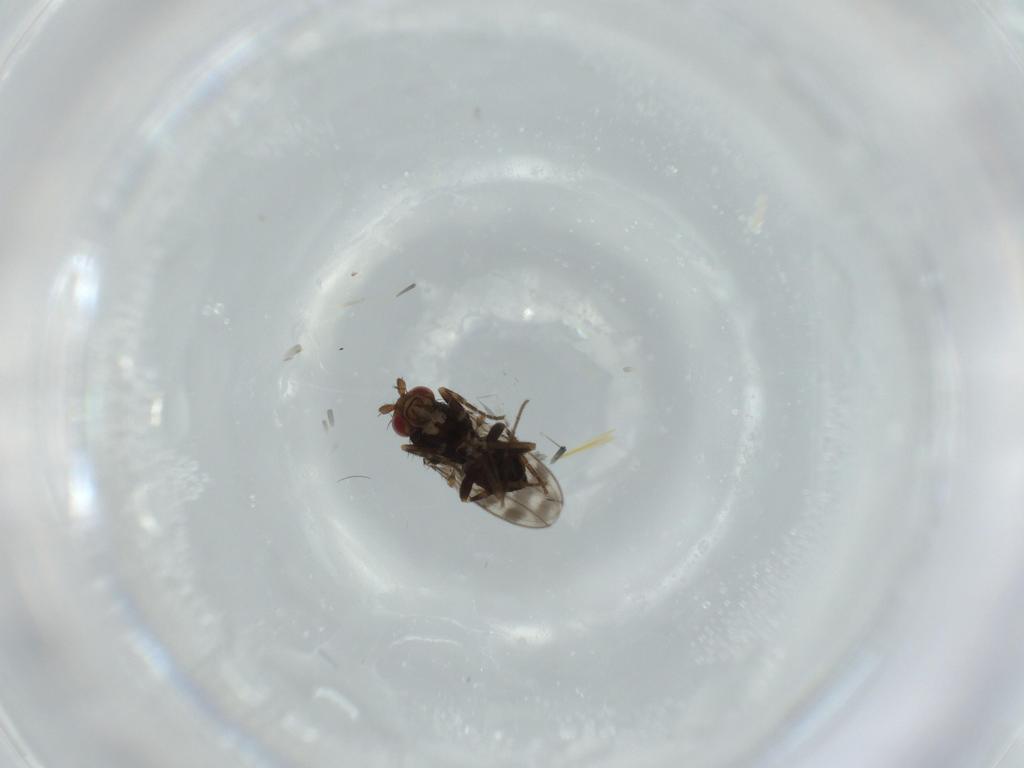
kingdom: Animalia
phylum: Arthropoda
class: Insecta
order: Diptera
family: Sphaeroceridae
